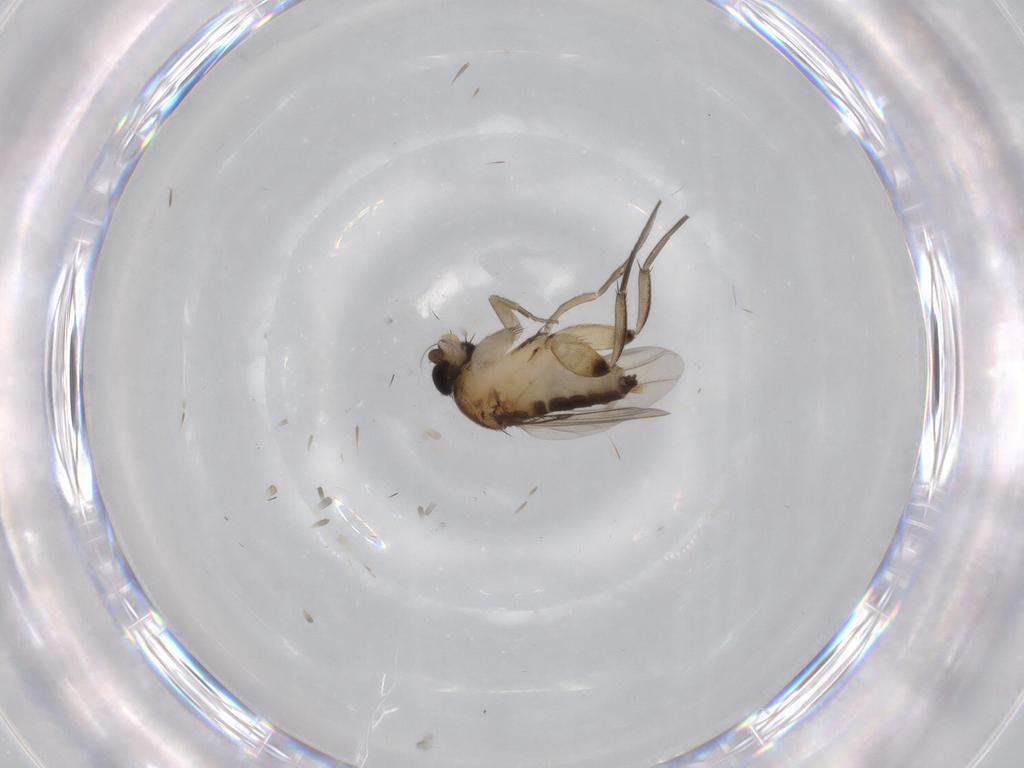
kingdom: Animalia
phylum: Arthropoda
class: Insecta
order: Diptera
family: Phoridae
